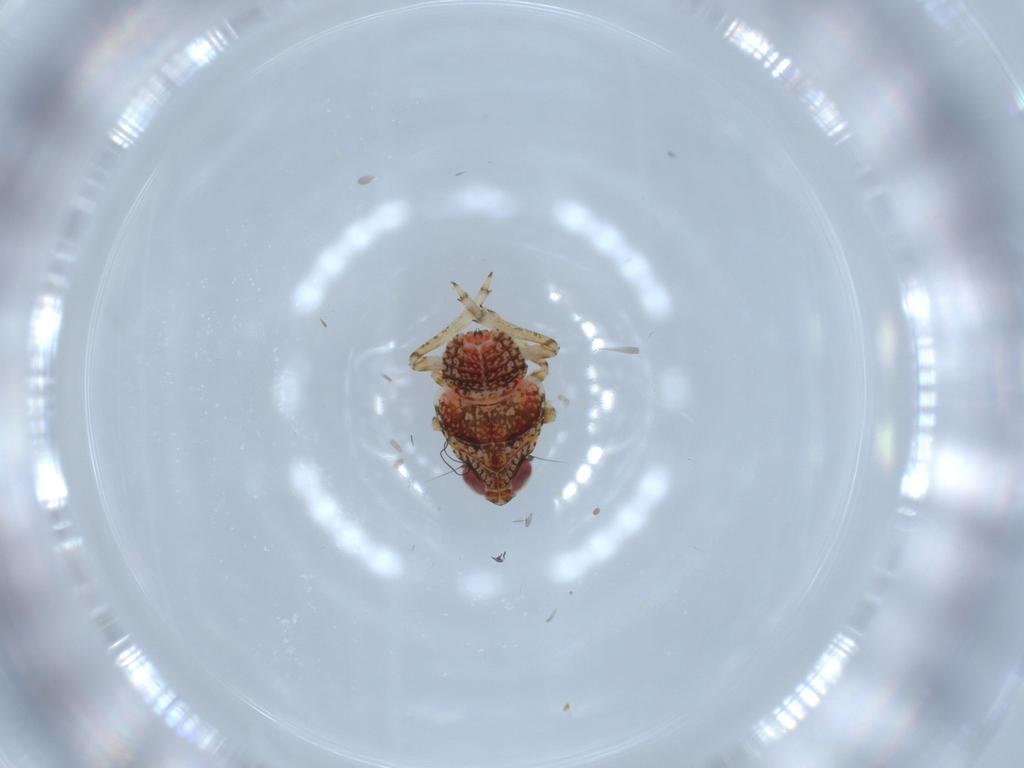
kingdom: Animalia
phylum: Arthropoda
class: Insecta
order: Hemiptera
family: Issidae
